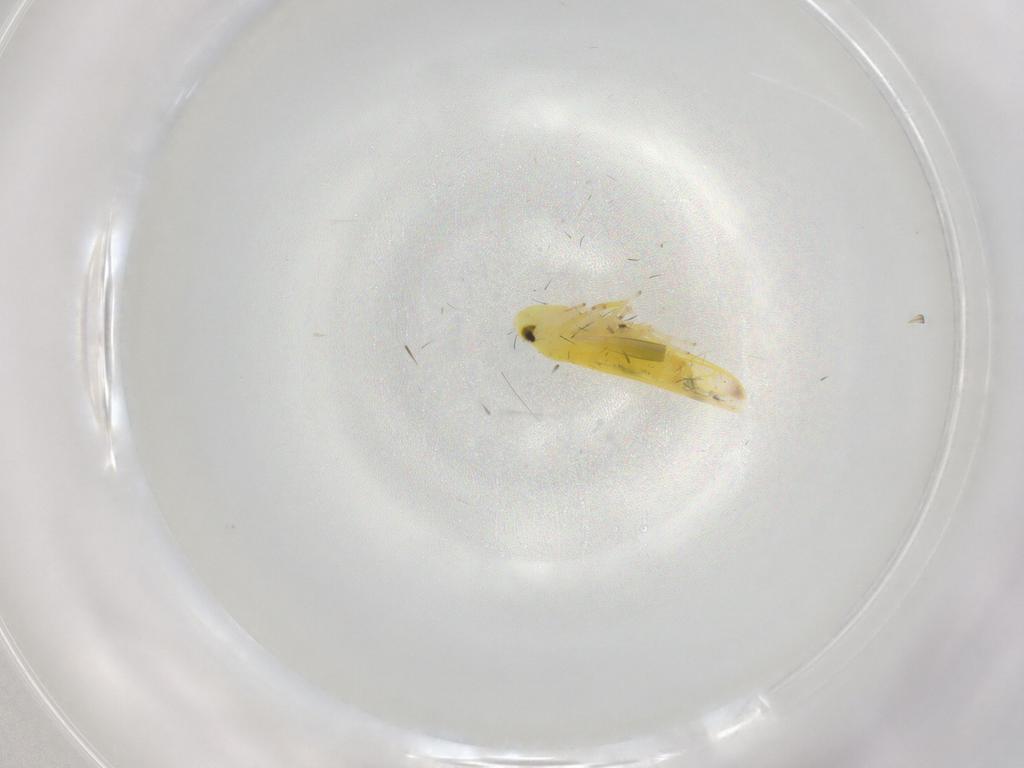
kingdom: Animalia
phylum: Arthropoda
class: Insecta
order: Hemiptera
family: Cicadellidae
